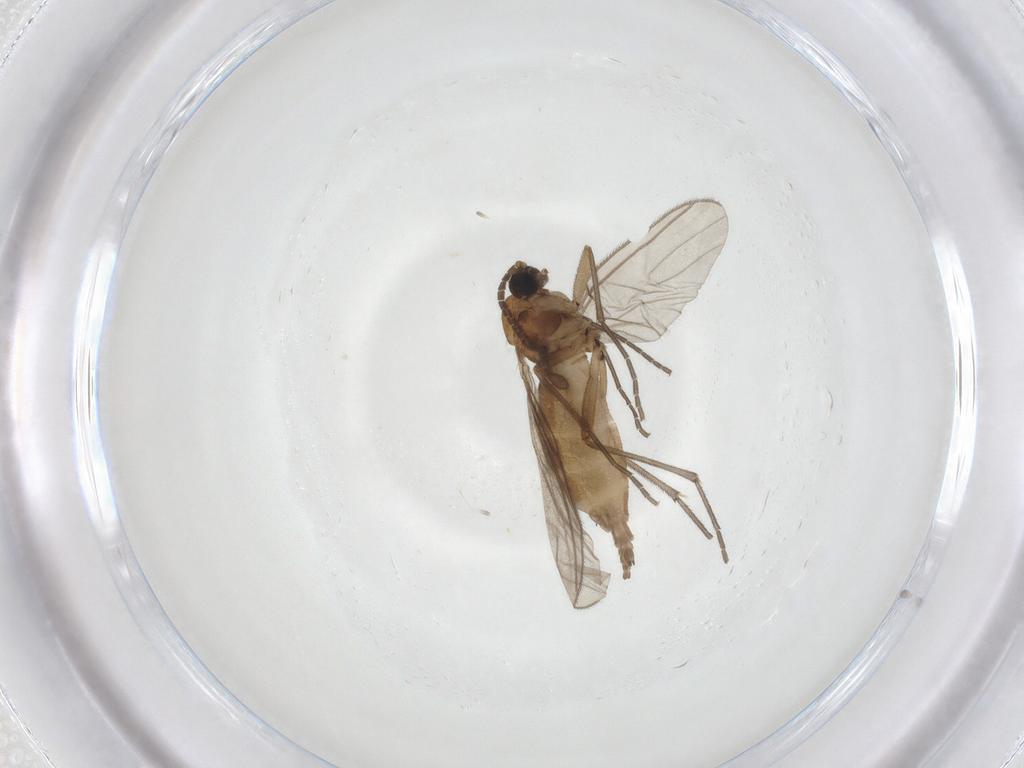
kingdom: Animalia
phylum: Arthropoda
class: Insecta
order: Diptera
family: Sciaridae
